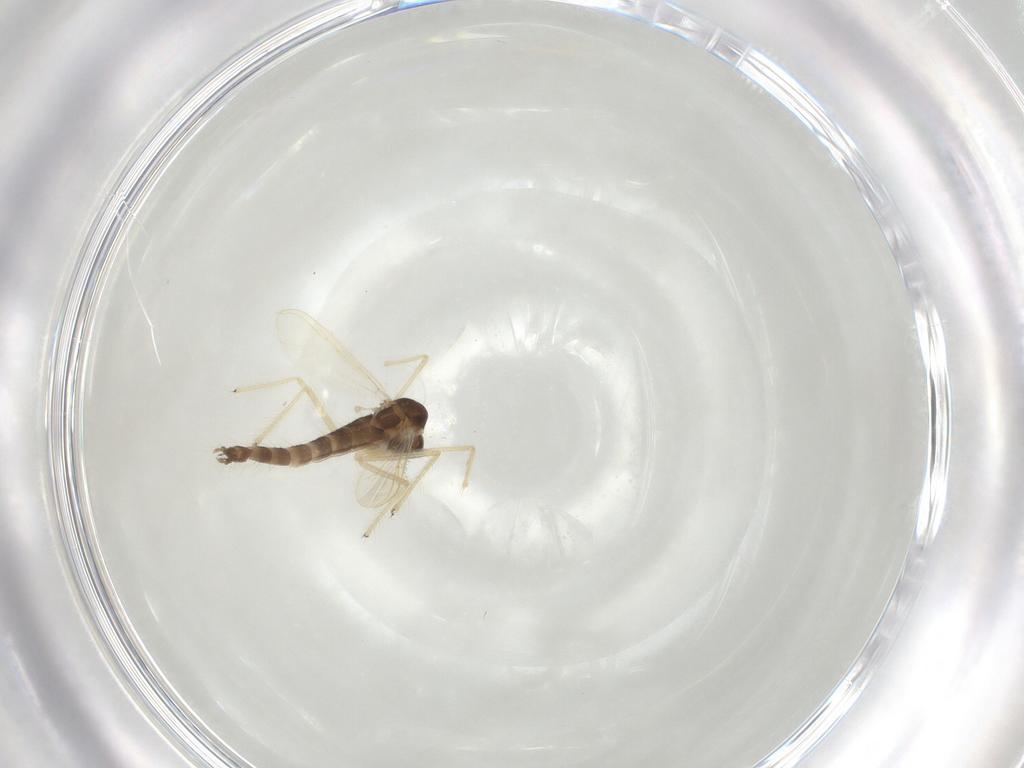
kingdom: Animalia
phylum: Arthropoda
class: Insecta
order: Diptera
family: Chironomidae
